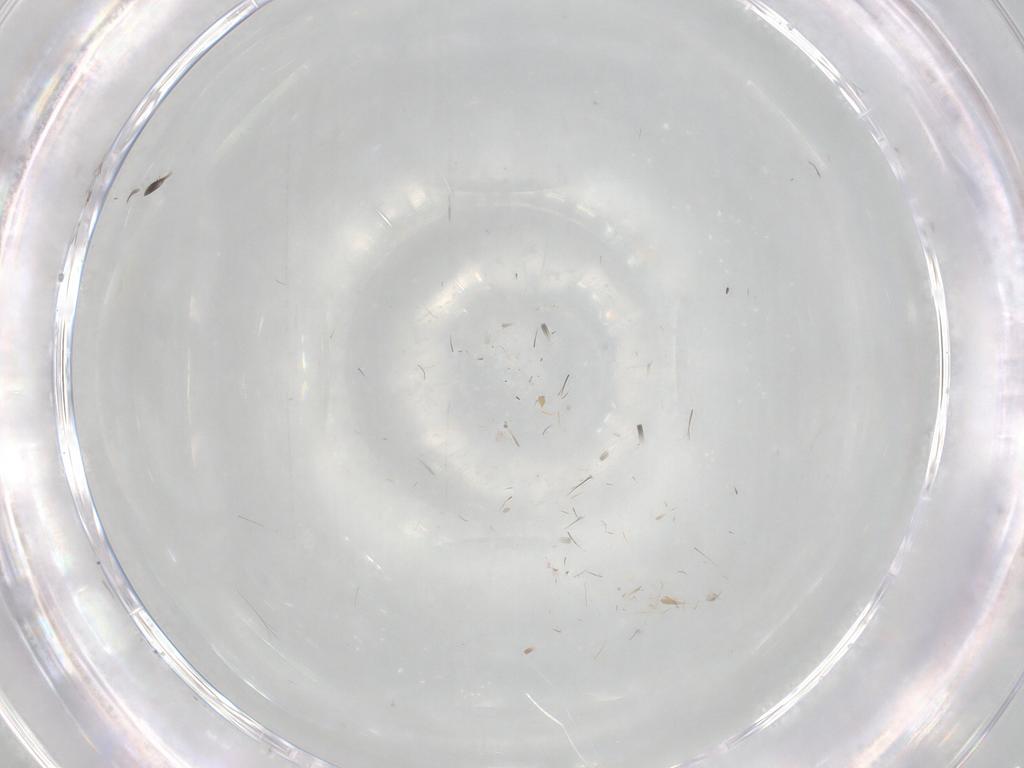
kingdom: Animalia
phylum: Arthropoda
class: Insecta
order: Orthoptera
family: Trigonidiidae
